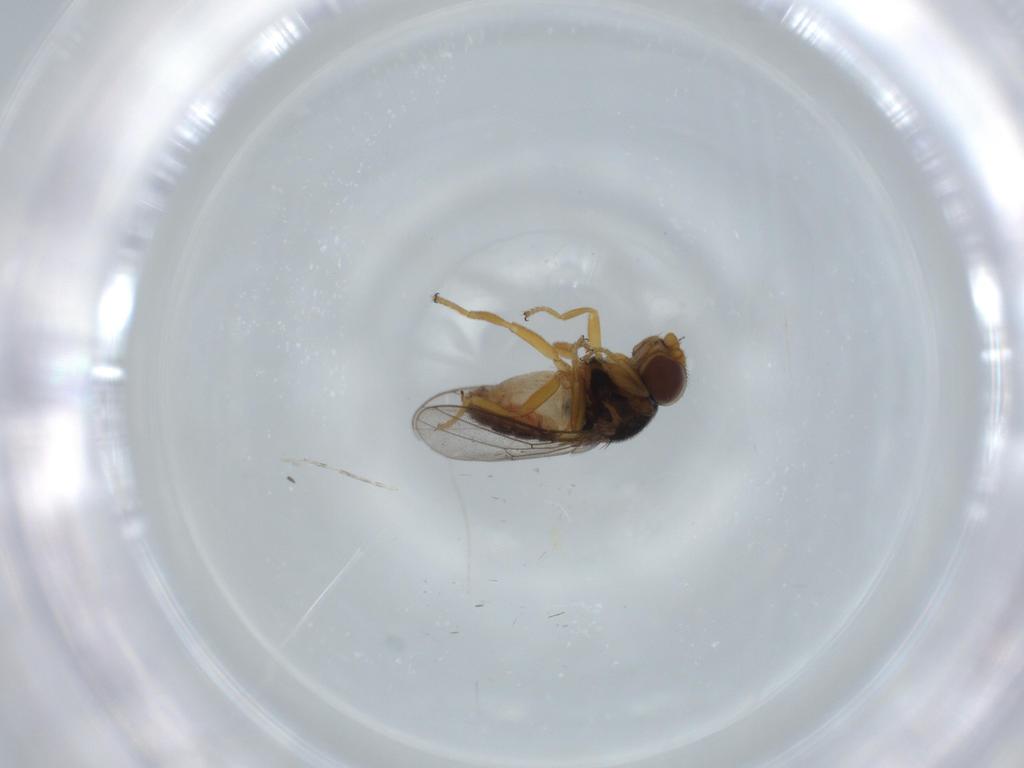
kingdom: Animalia
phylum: Arthropoda
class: Insecta
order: Diptera
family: Chloropidae
